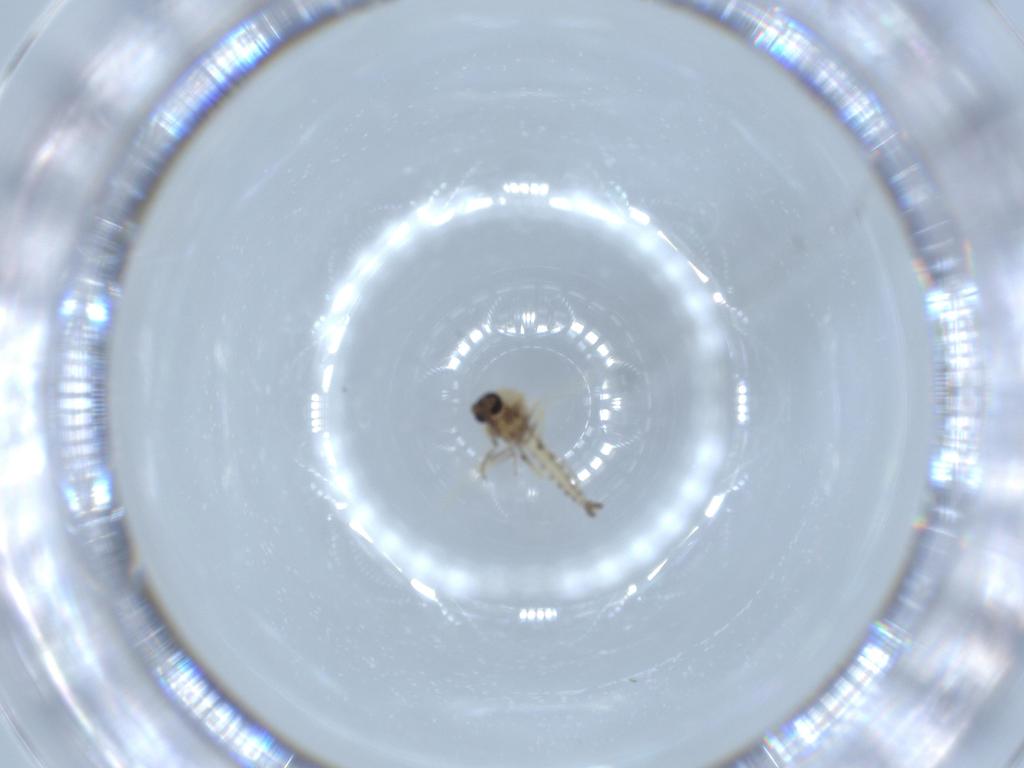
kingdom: Animalia
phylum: Arthropoda
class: Insecta
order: Diptera
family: Ceratopogonidae
